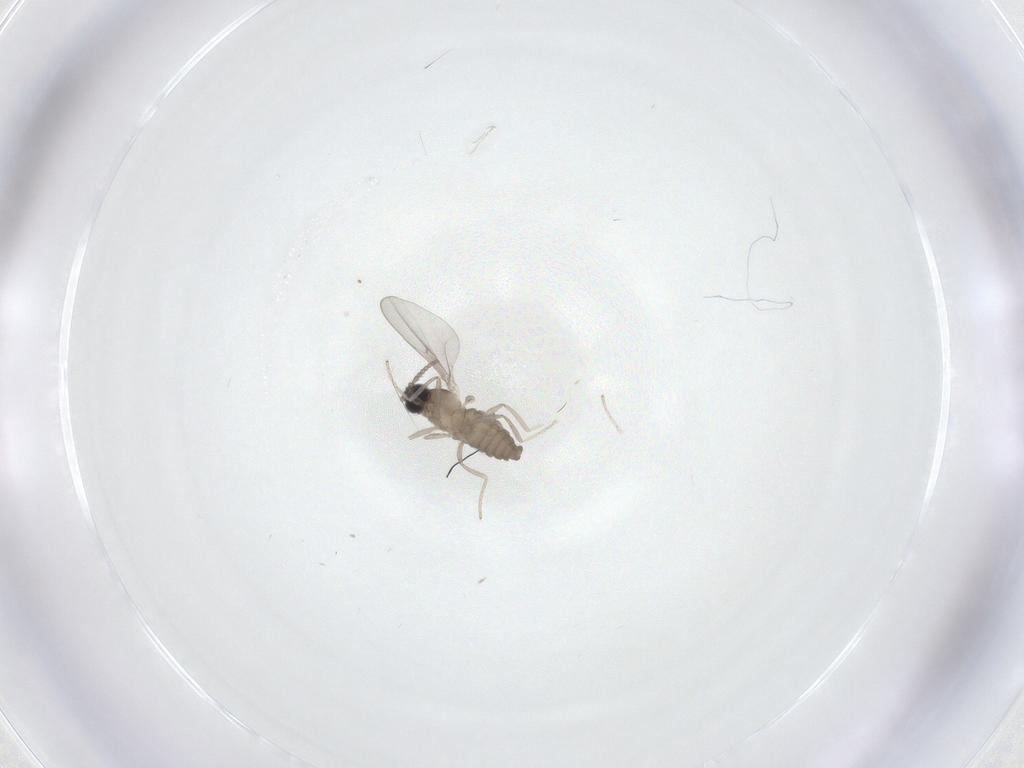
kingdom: Animalia
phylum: Arthropoda
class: Insecta
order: Diptera
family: Cecidomyiidae
